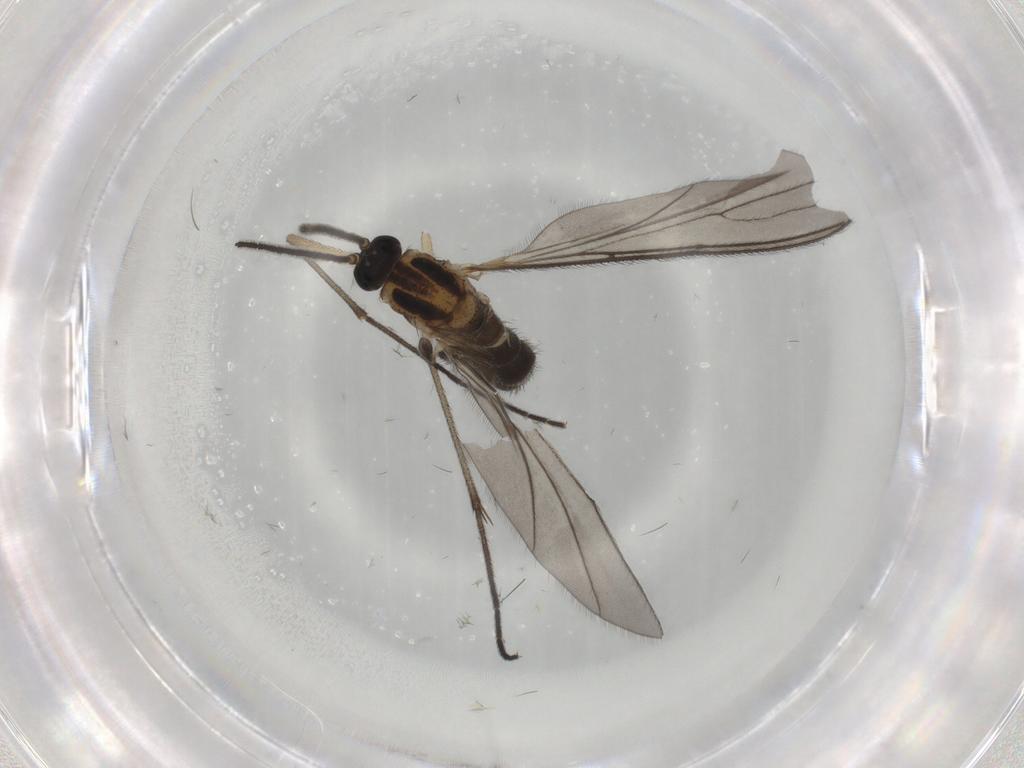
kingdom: Animalia
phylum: Arthropoda
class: Insecta
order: Diptera
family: Sciaridae
